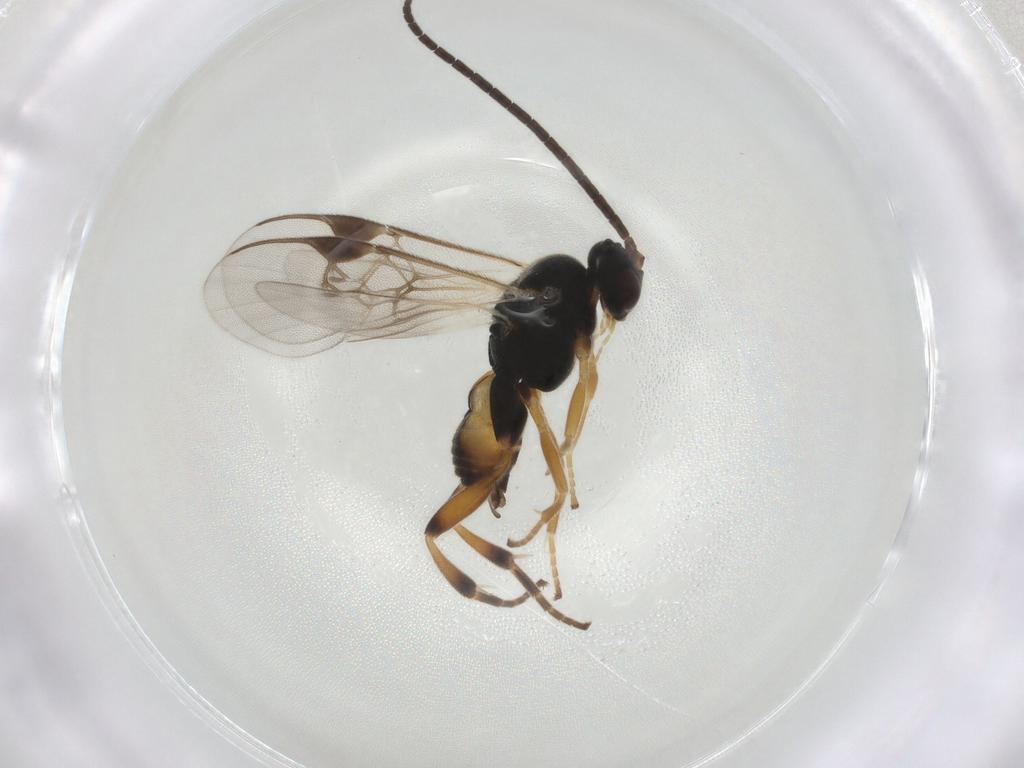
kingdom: Animalia
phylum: Arthropoda
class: Insecta
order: Hymenoptera
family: Braconidae
